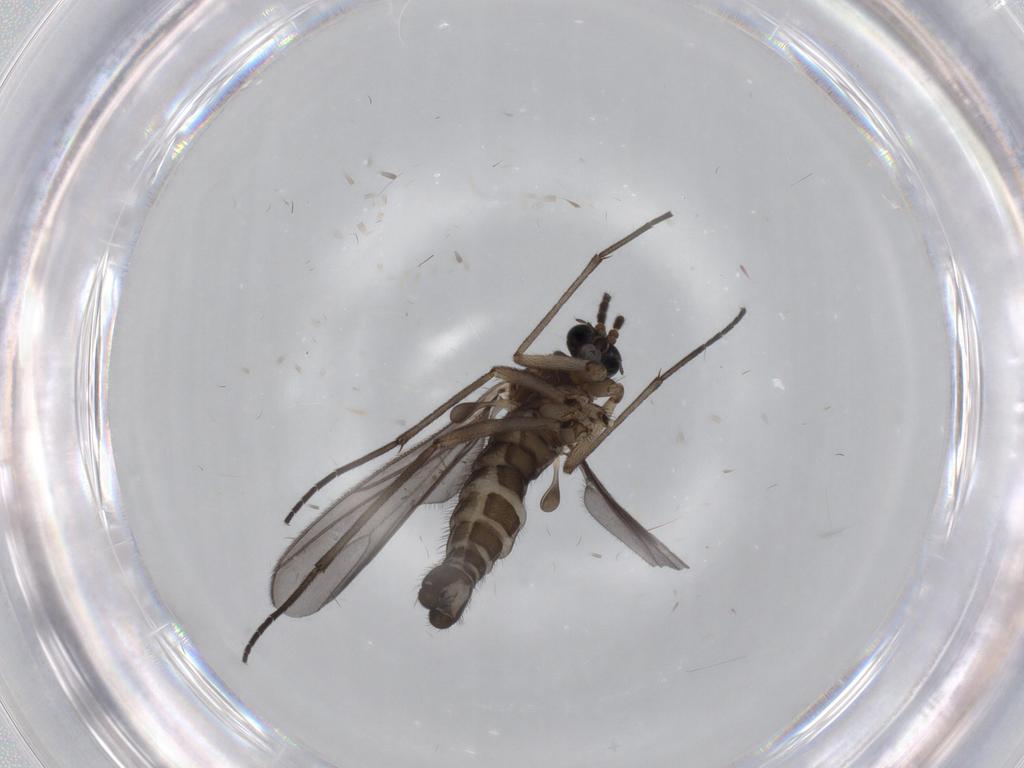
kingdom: Animalia
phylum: Arthropoda
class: Insecta
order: Diptera
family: Sciaridae
